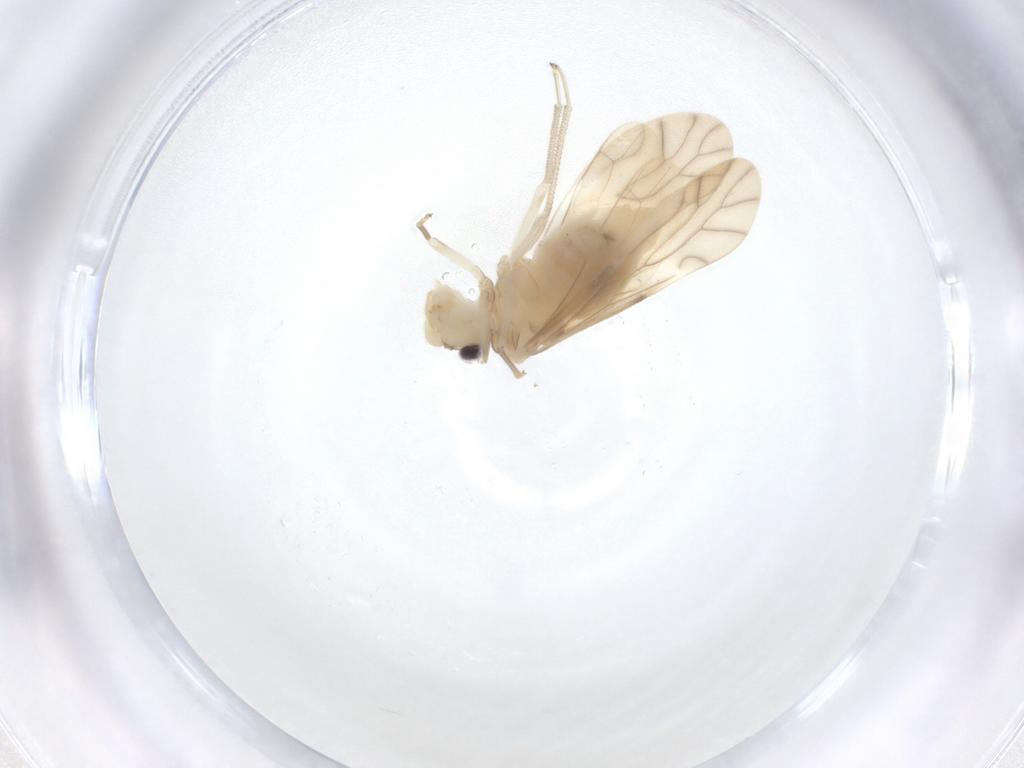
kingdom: Animalia
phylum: Arthropoda
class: Insecta
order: Psocodea
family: Caeciliusidae
